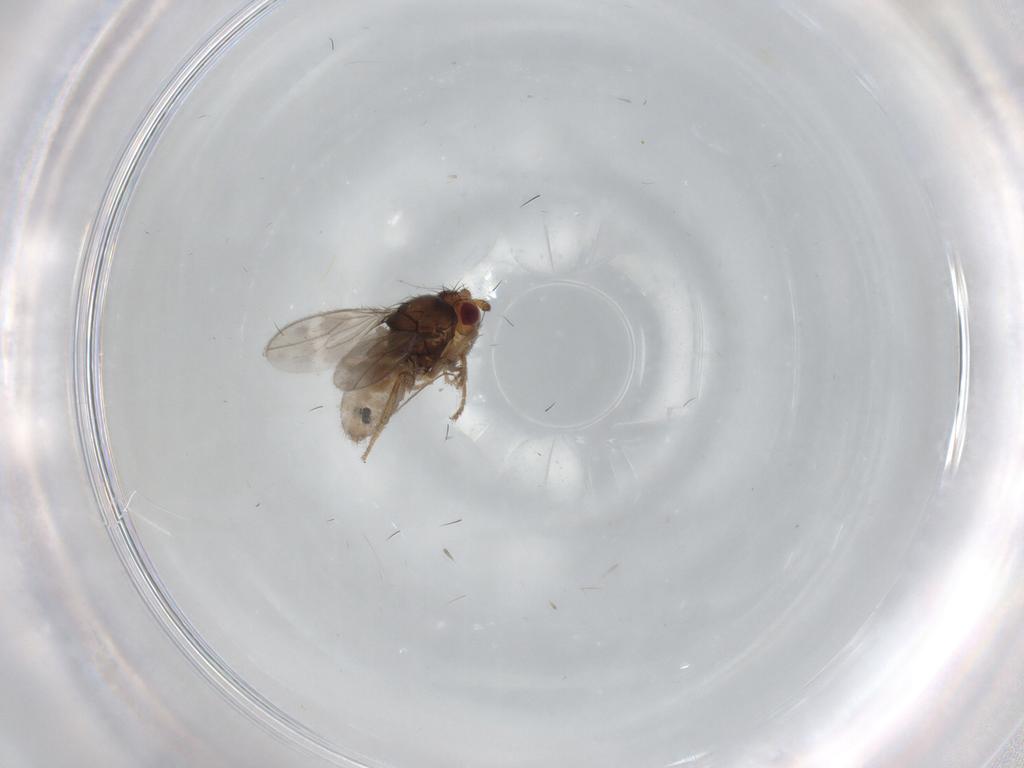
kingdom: Animalia
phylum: Arthropoda
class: Insecta
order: Diptera
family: Sphaeroceridae
